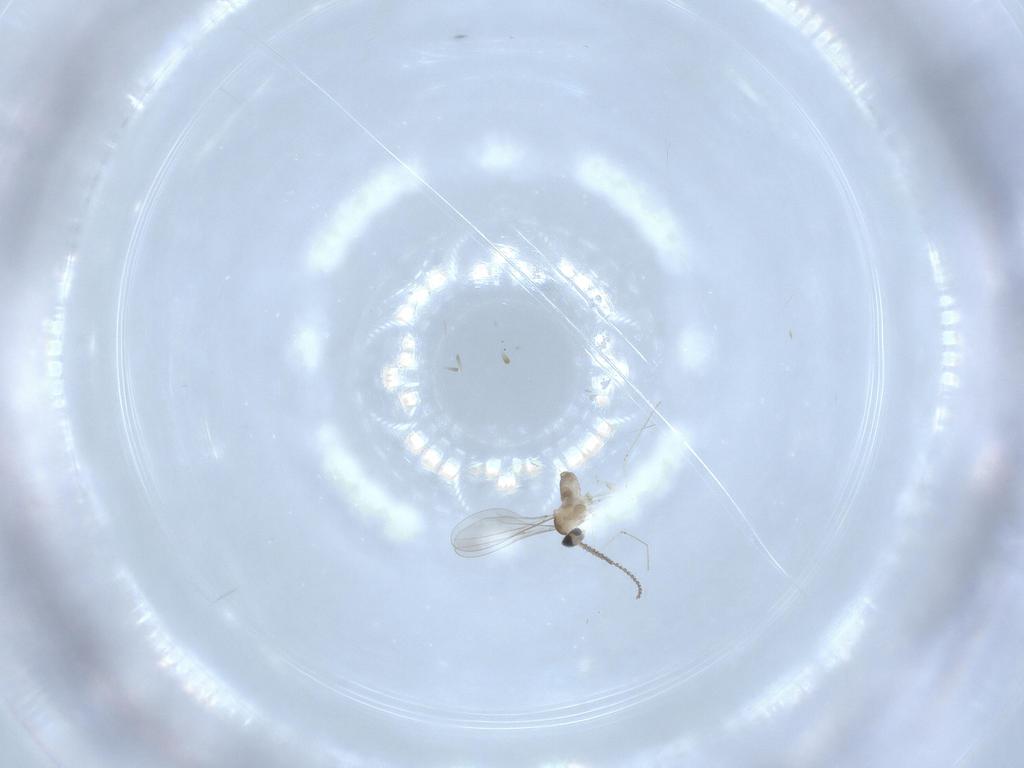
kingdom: Animalia
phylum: Arthropoda
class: Insecta
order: Diptera
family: Cecidomyiidae
